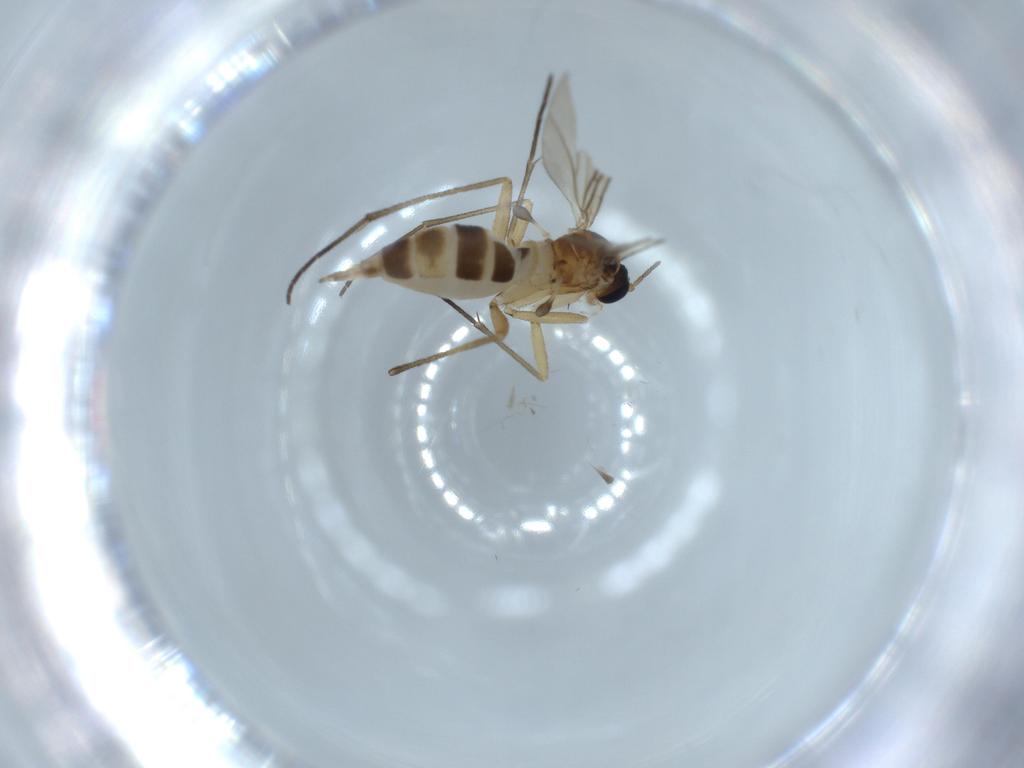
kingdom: Animalia
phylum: Arthropoda
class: Insecta
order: Diptera
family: Sciaridae
